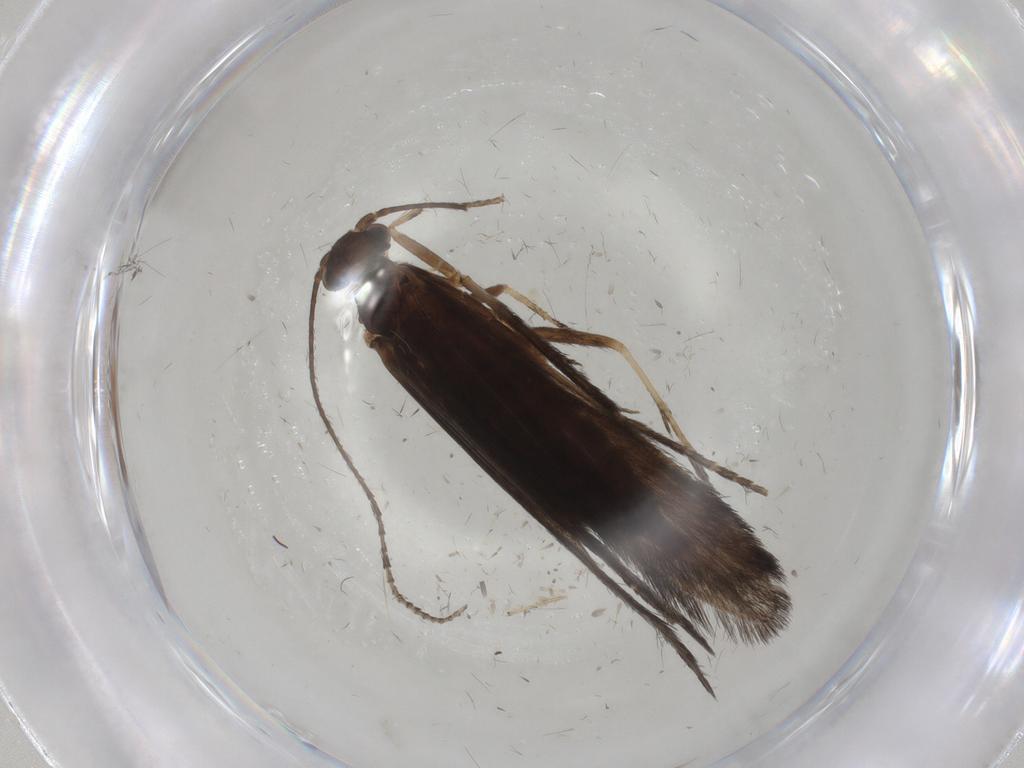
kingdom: Animalia
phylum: Arthropoda
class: Insecta
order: Trichoptera
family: Xiphocentronidae
